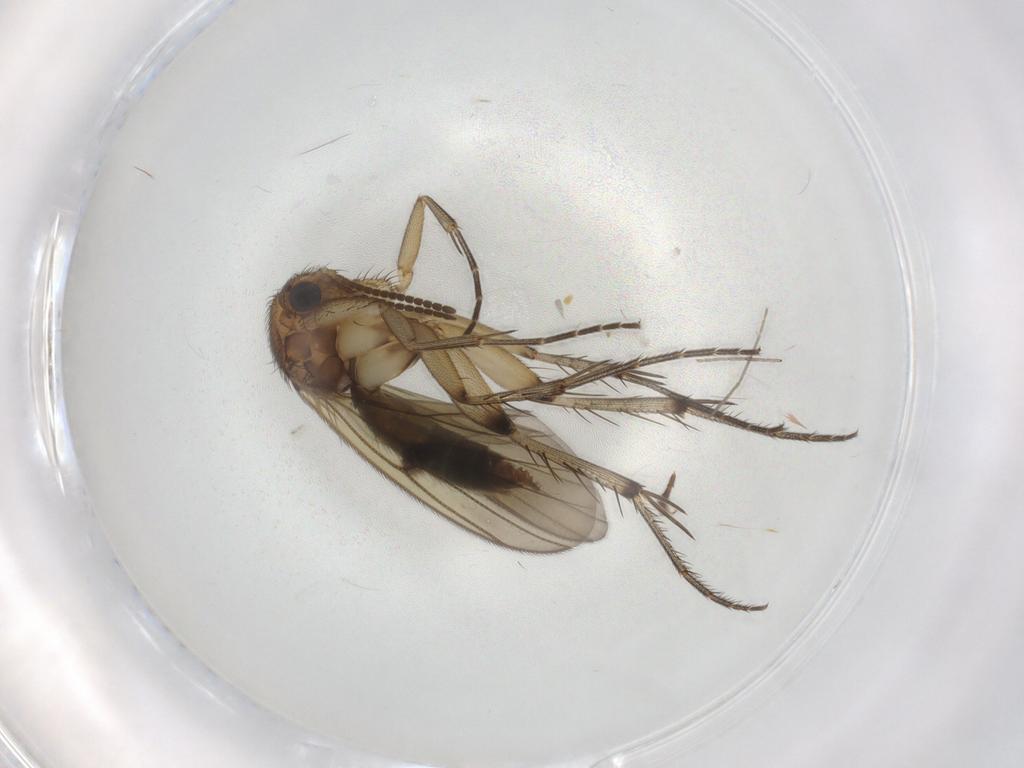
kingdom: Animalia
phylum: Arthropoda
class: Insecta
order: Diptera
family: Mycetophilidae
